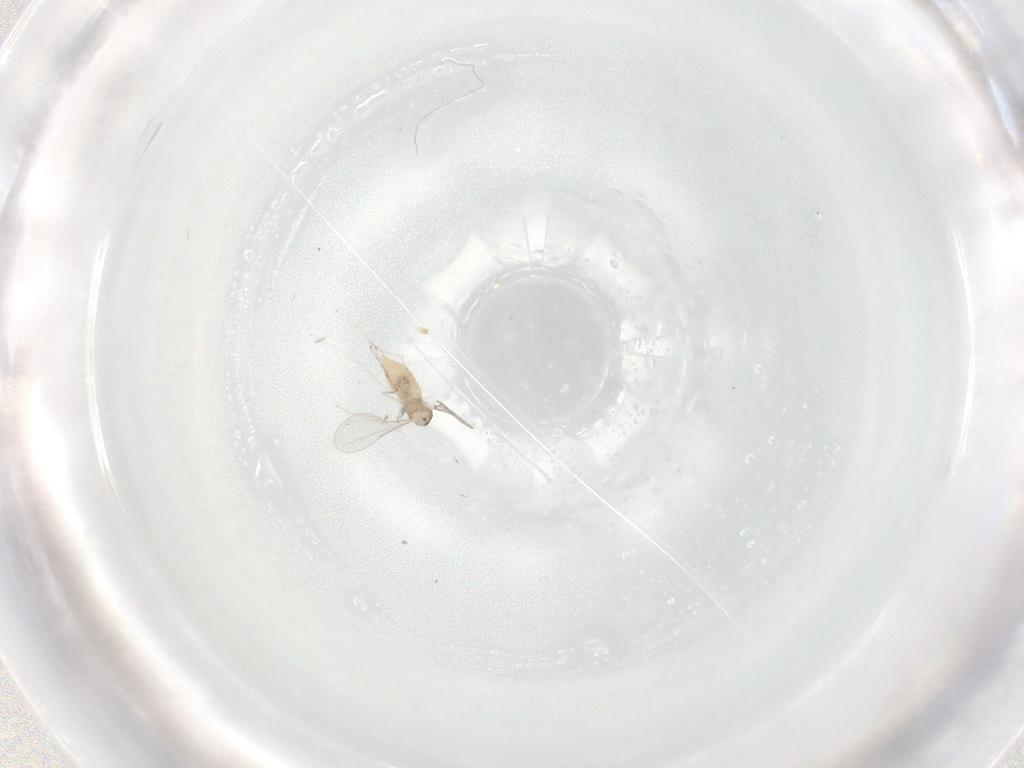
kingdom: Animalia
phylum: Arthropoda
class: Insecta
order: Diptera
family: Cecidomyiidae
